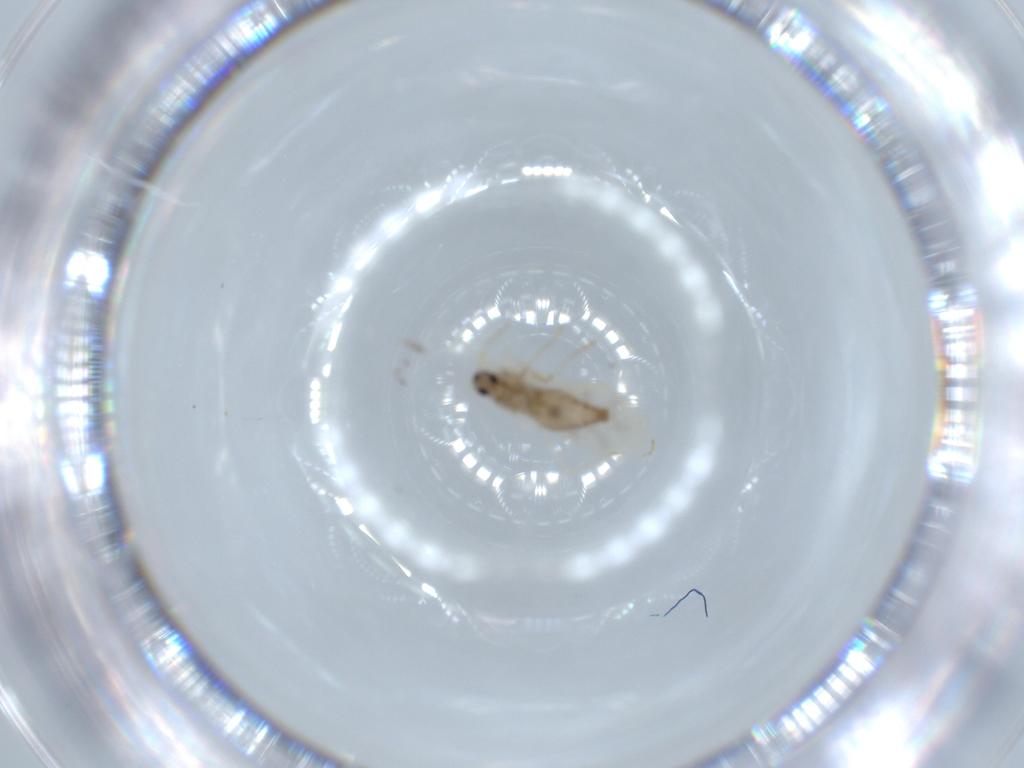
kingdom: Animalia
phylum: Arthropoda
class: Insecta
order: Diptera
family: Cecidomyiidae
